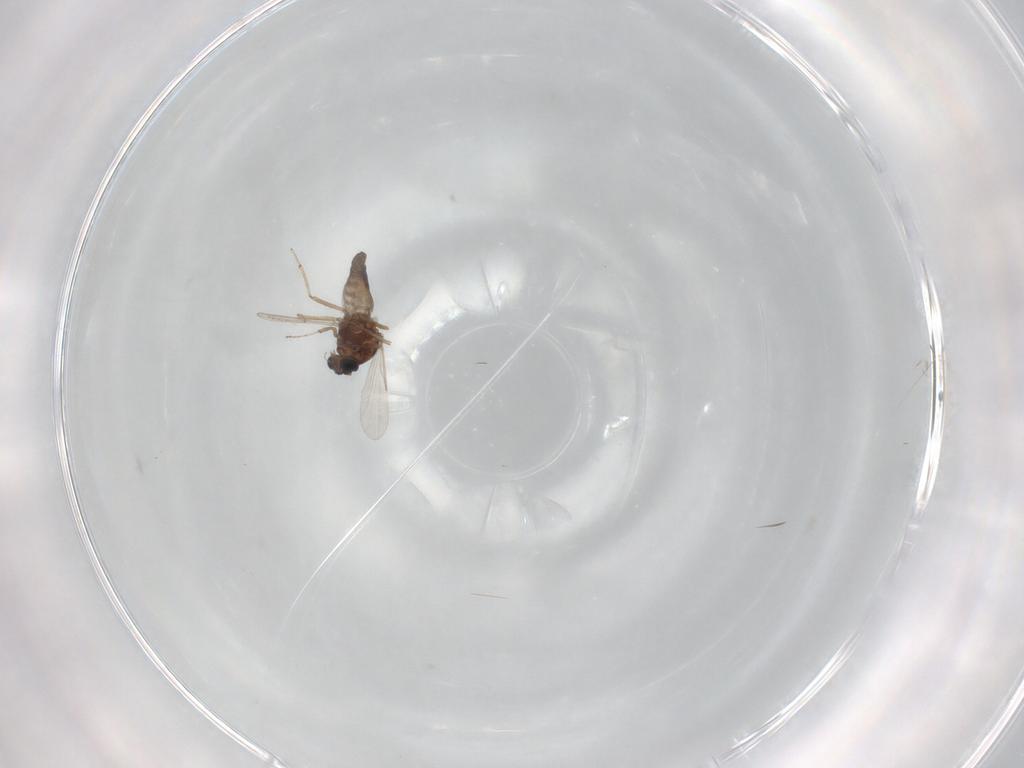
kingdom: Animalia
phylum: Arthropoda
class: Insecta
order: Diptera
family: Ceratopogonidae
